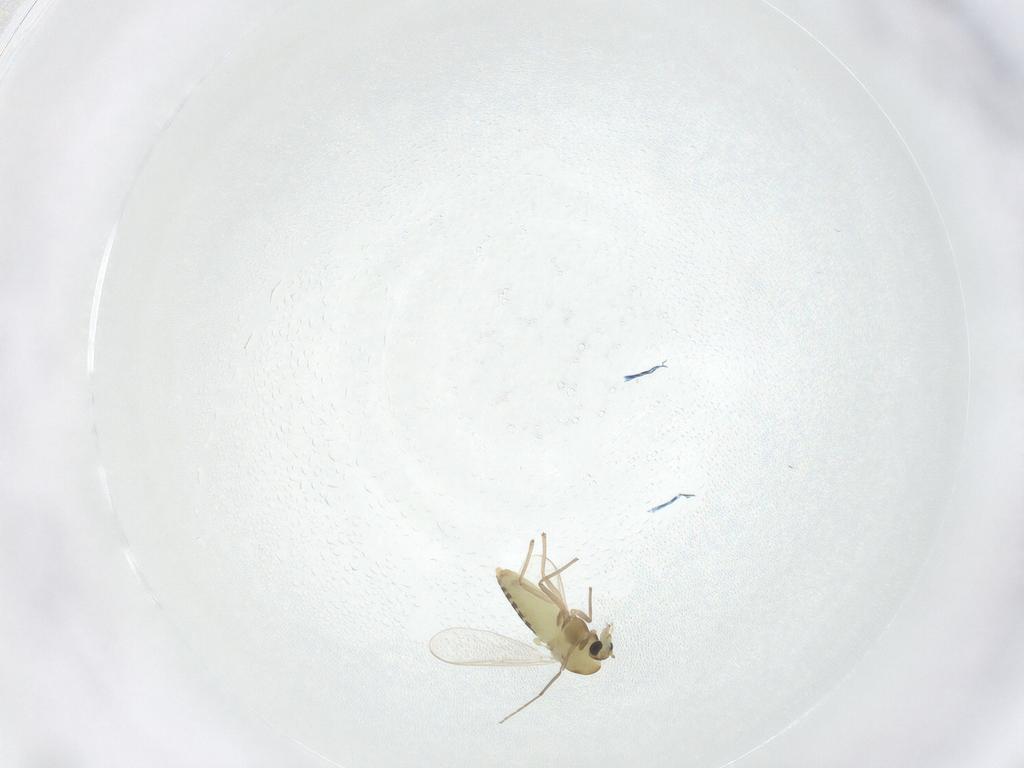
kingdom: Animalia
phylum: Arthropoda
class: Insecta
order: Diptera
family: Chironomidae
